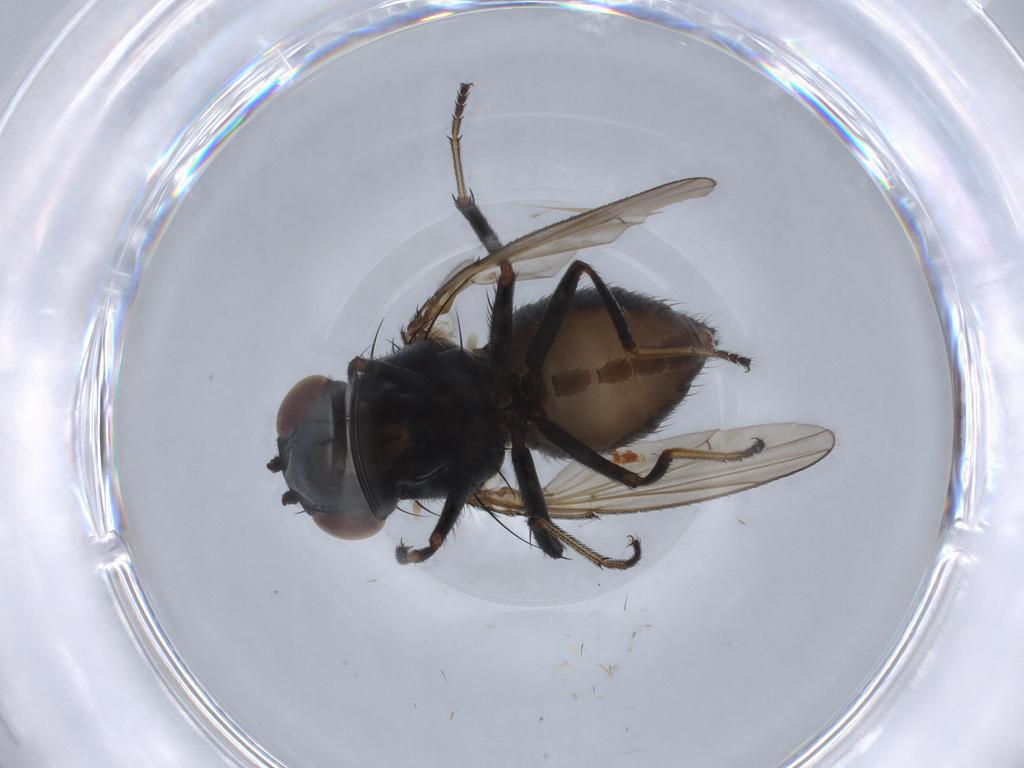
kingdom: Animalia
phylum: Arthropoda
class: Insecta
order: Diptera
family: Ephydridae
